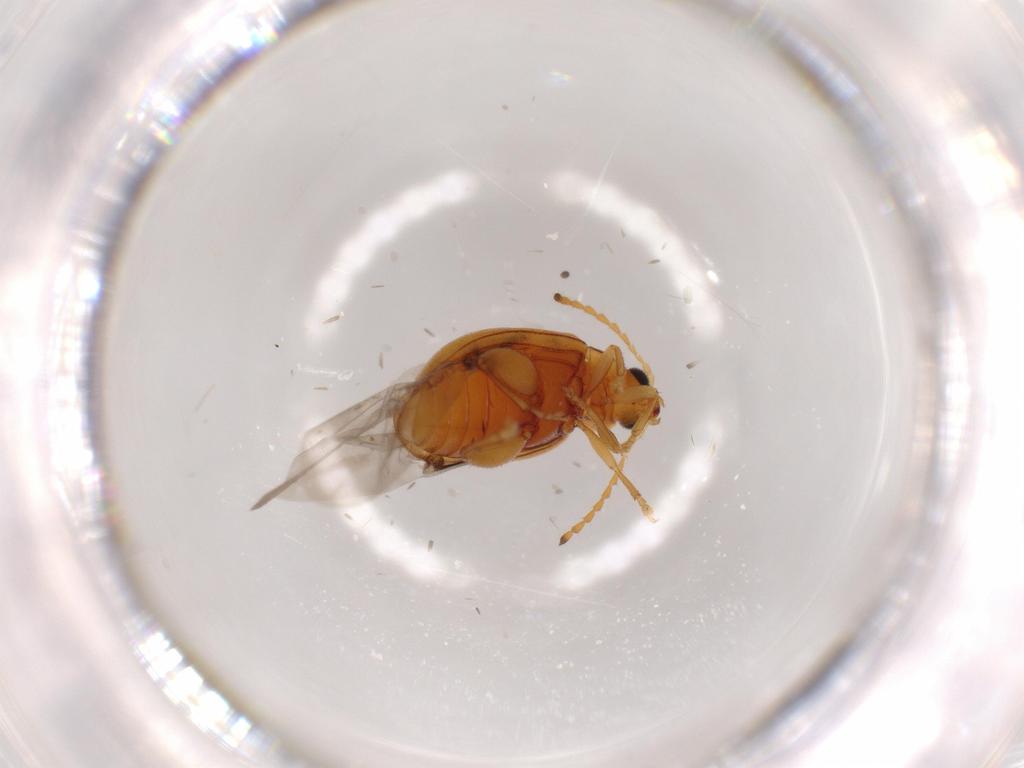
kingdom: Animalia
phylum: Arthropoda
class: Insecta
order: Coleoptera
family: Chrysomelidae
